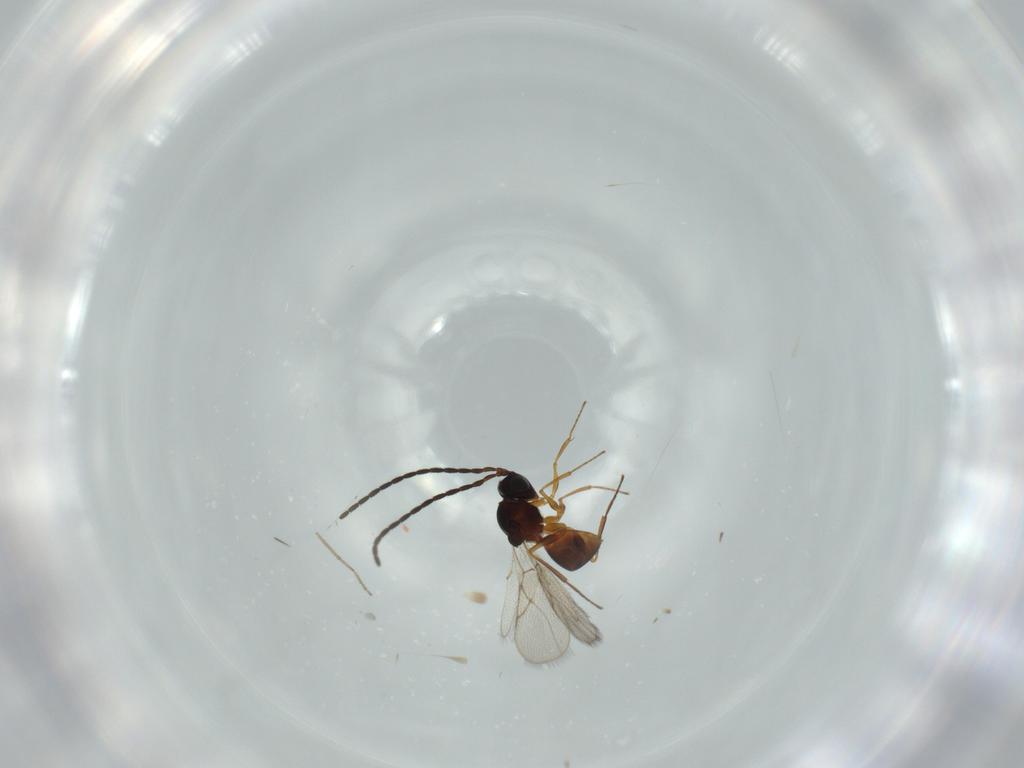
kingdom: Animalia
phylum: Arthropoda
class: Insecta
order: Hymenoptera
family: Figitidae
